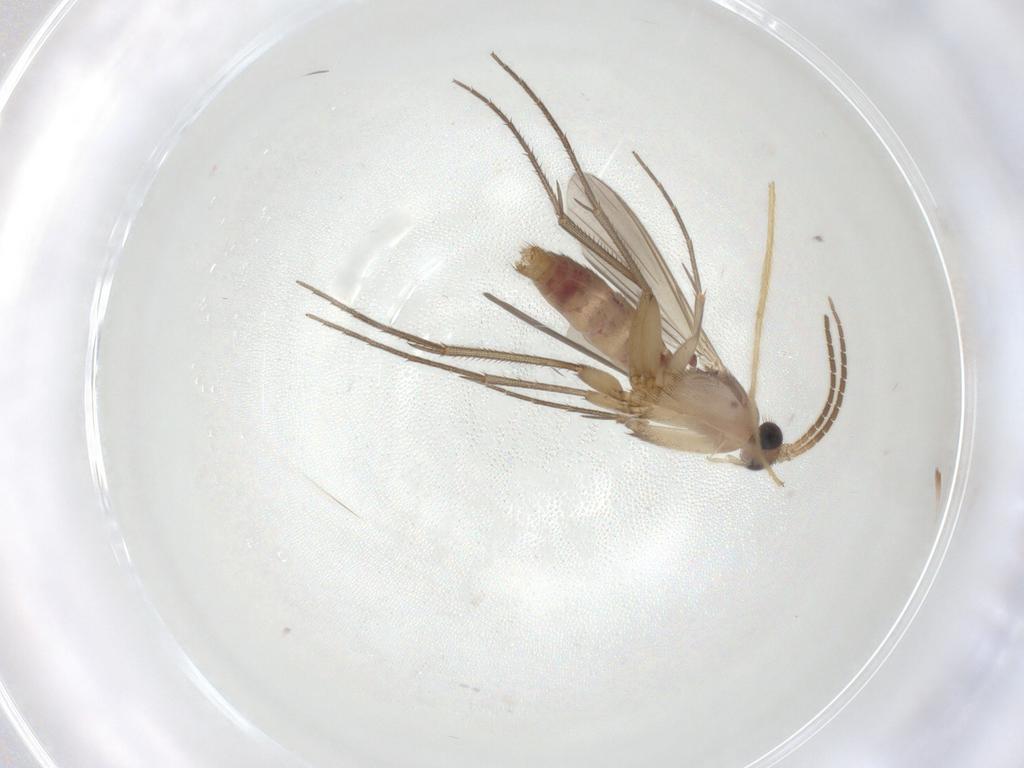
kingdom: Animalia
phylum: Arthropoda
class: Insecta
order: Diptera
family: Mycetophilidae
